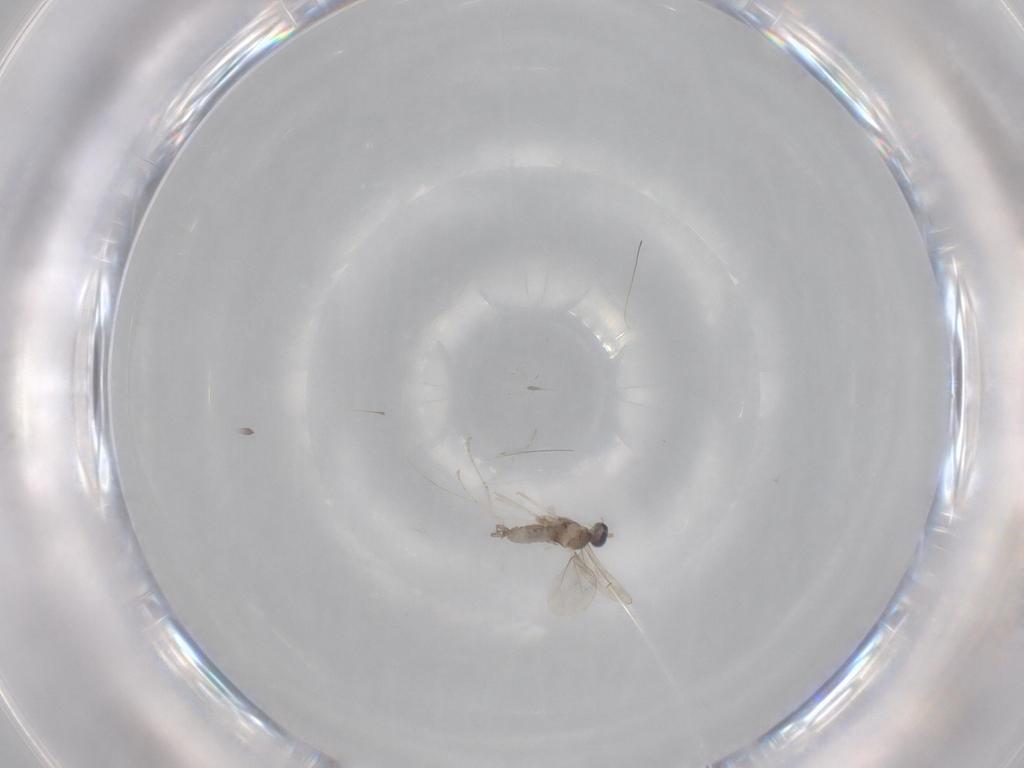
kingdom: Animalia
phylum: Arthropoda
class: Insecta
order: Diptera
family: Cecidomyiidae
